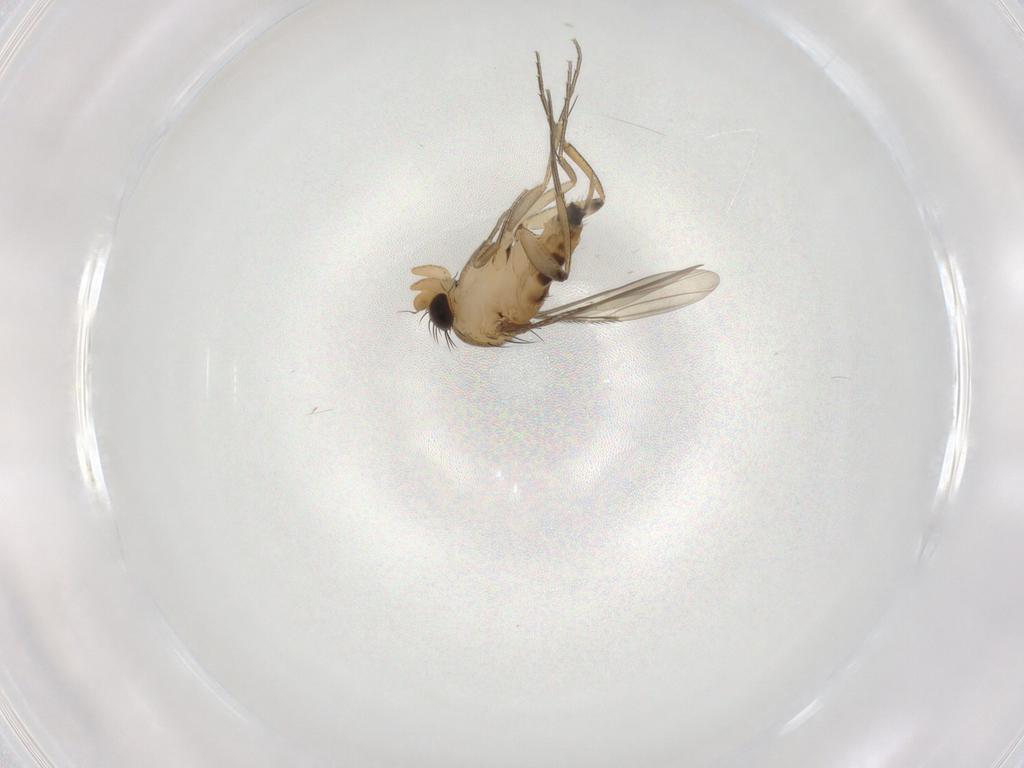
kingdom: Animalia
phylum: Arthropoda
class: Insecta
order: Diptera
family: Phoridae
